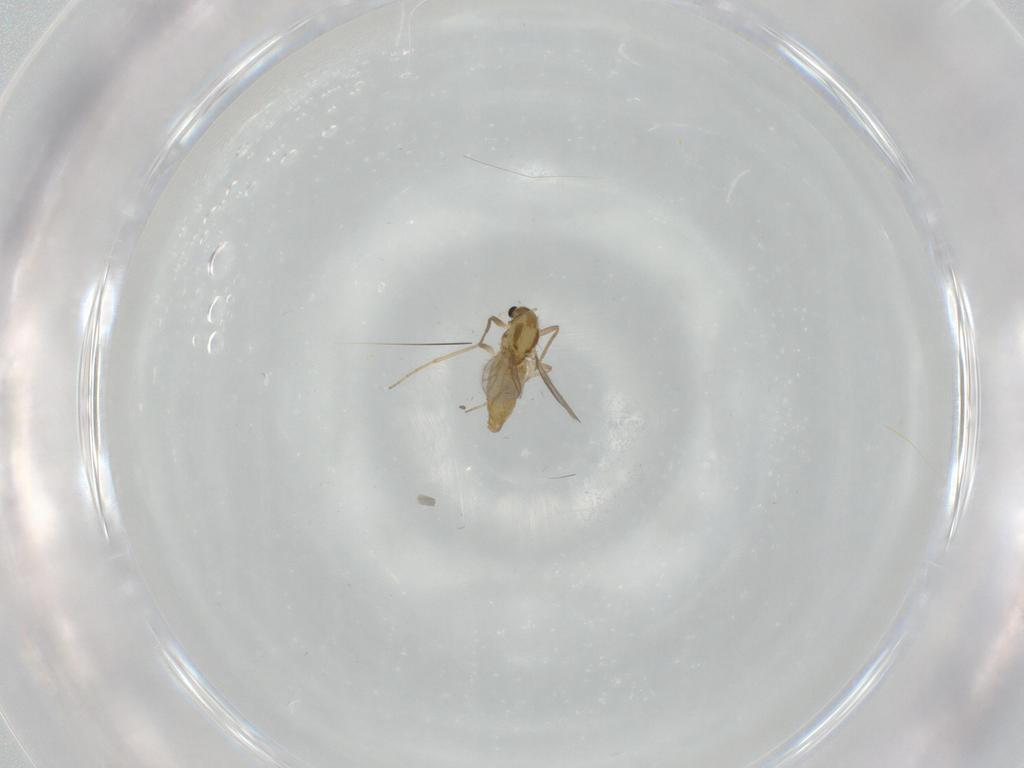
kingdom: Animalia
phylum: Arthropoda
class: Insecta
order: Diptera
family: Chironomidae
